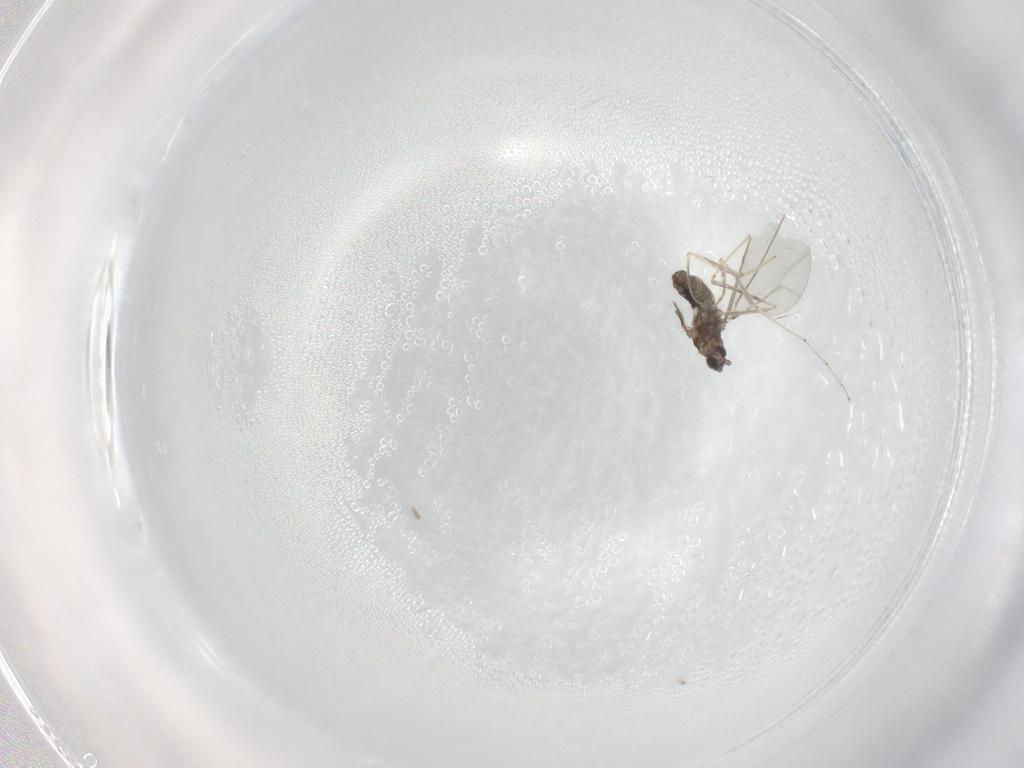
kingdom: Animalia
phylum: Arthropoda
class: Insecta
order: Diptera
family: Cecidomyiidae
